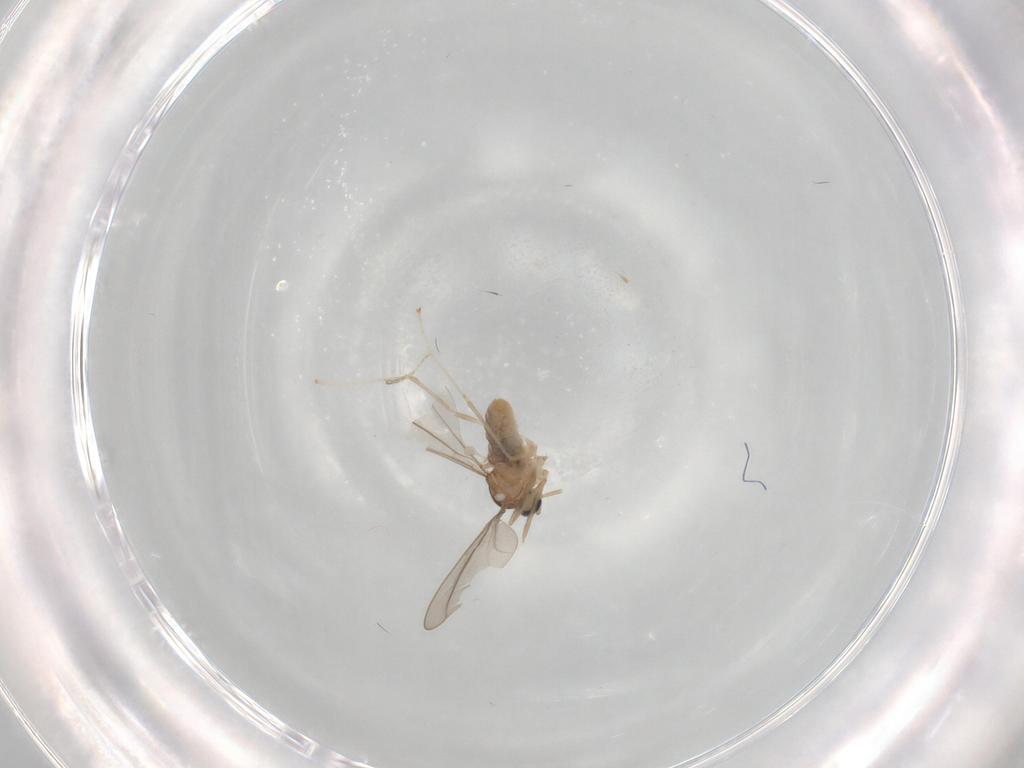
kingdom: Animalia
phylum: Arthropoda
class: Insecta
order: Diptera
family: Cecidomyiidae
